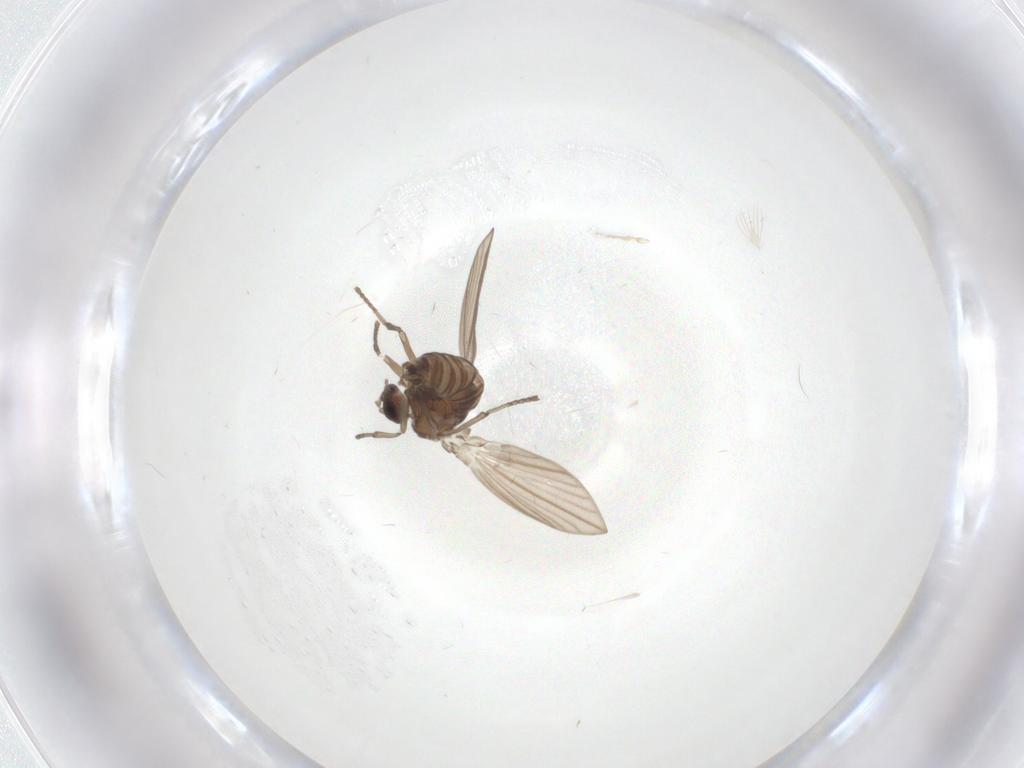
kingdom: Animalia
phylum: Arthropoda
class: Insecta
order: Diptera
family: Psychodidae
